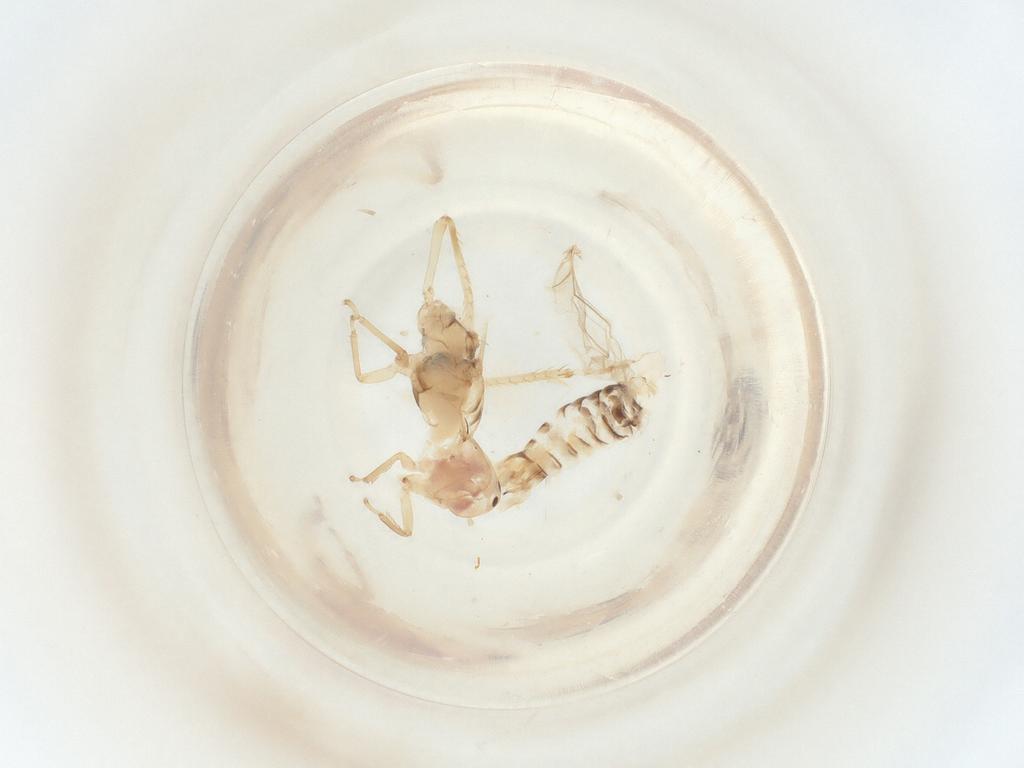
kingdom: Animalia
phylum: Arthropoda
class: Insecta
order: Hemiptera
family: Cicadellidae
